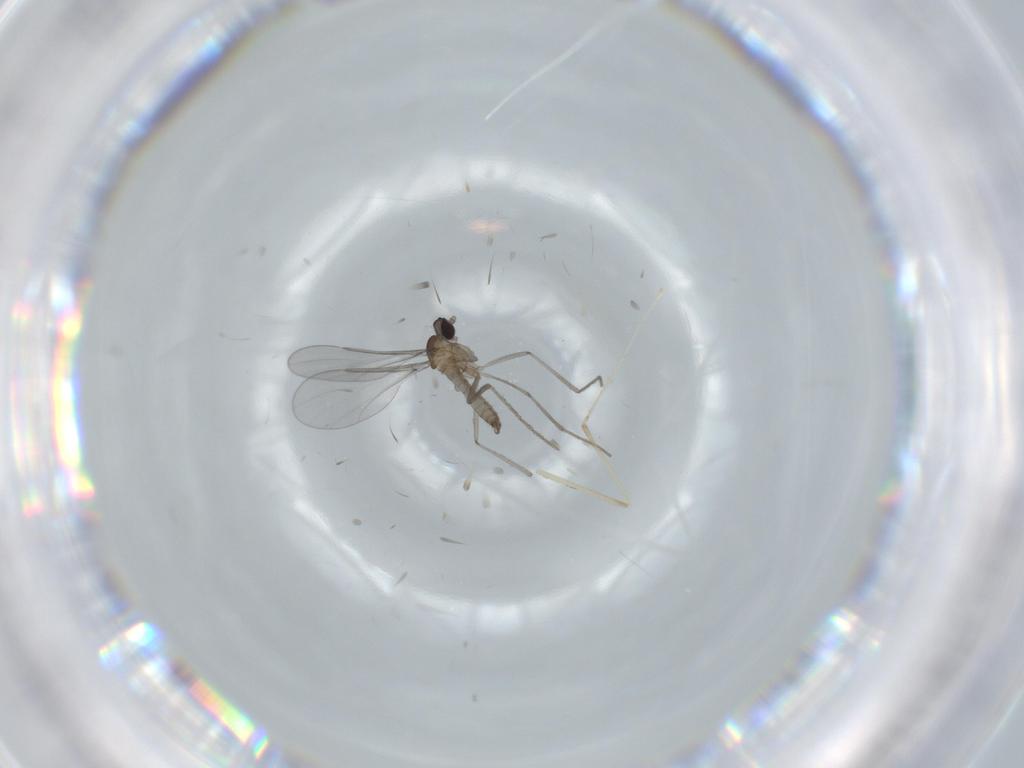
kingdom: Animalia
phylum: Arthropoda
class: Insecta
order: Diptera
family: Cecidomyiidae
